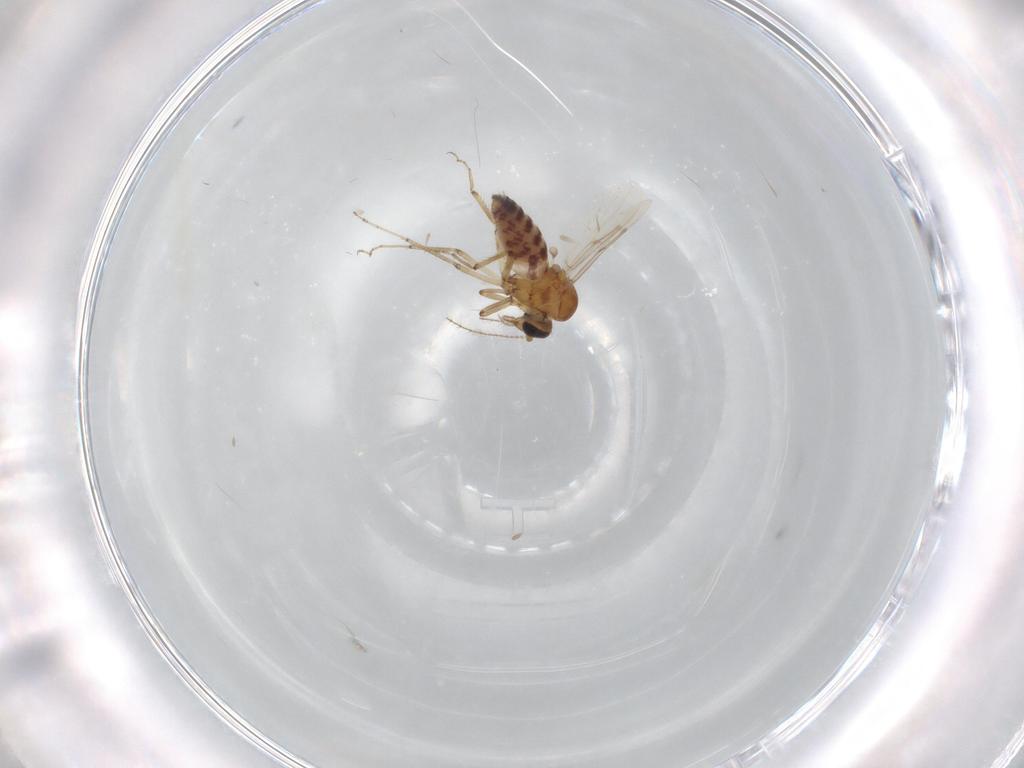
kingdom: Animalia
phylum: Arthropoda
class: Insecta
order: Diptera
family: Ceratopogonidae
